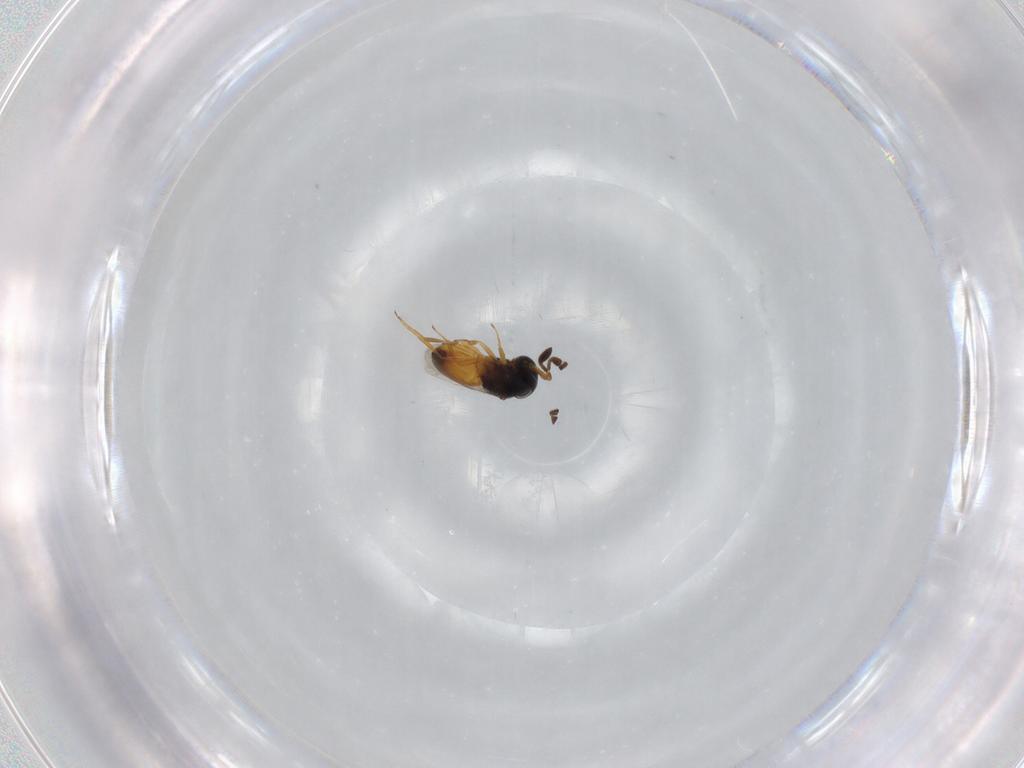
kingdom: Animalia
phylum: Arthropoda
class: Insecta
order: Hymenoptera
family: Scelionidae
